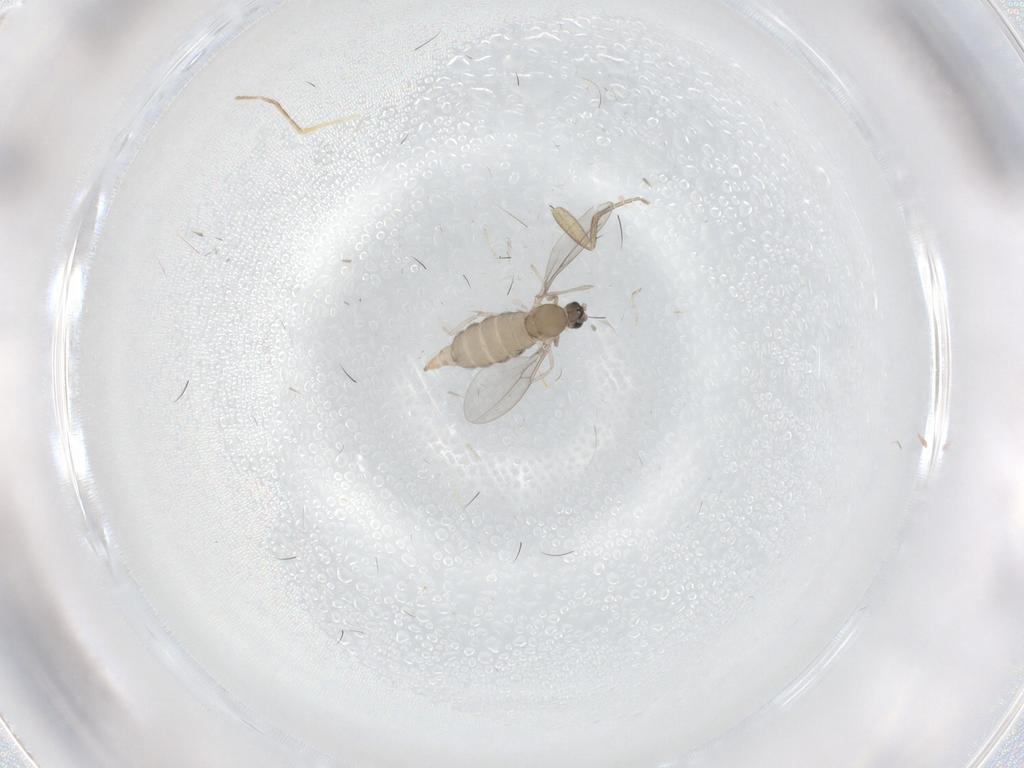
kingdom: Animalia
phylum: Arthropoda
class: Insecta
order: Diptera
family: Cecidomyiidae
